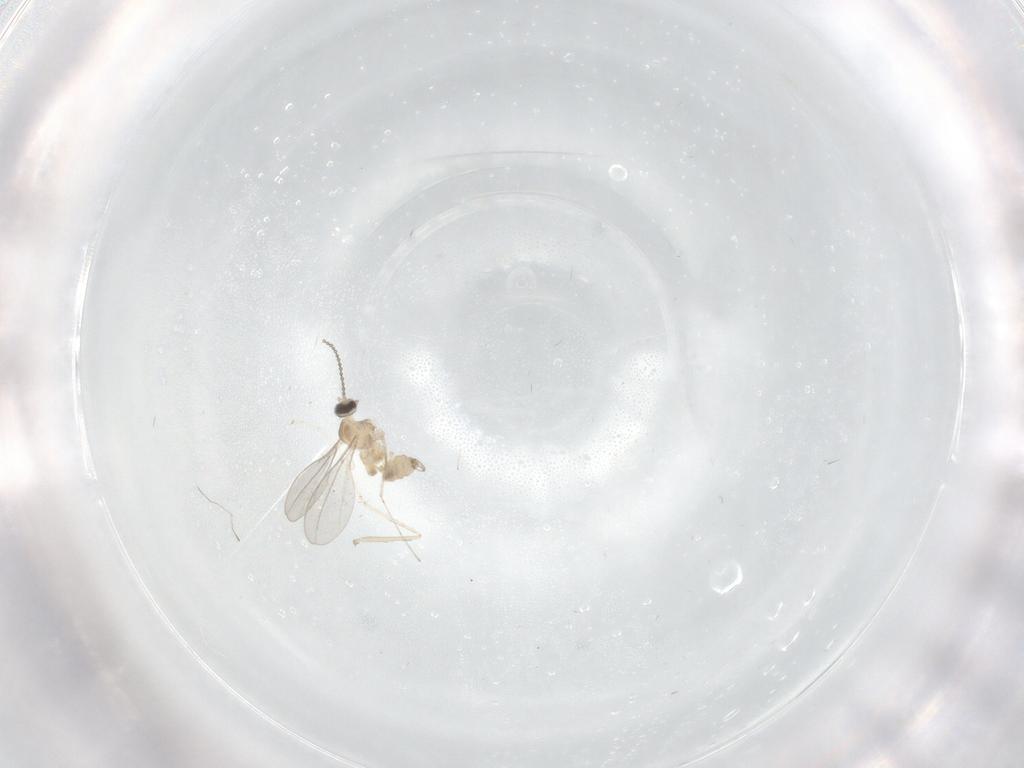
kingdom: Animalia
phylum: Arthropoda
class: Insecta
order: Diptera
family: Cecidomyiidae
